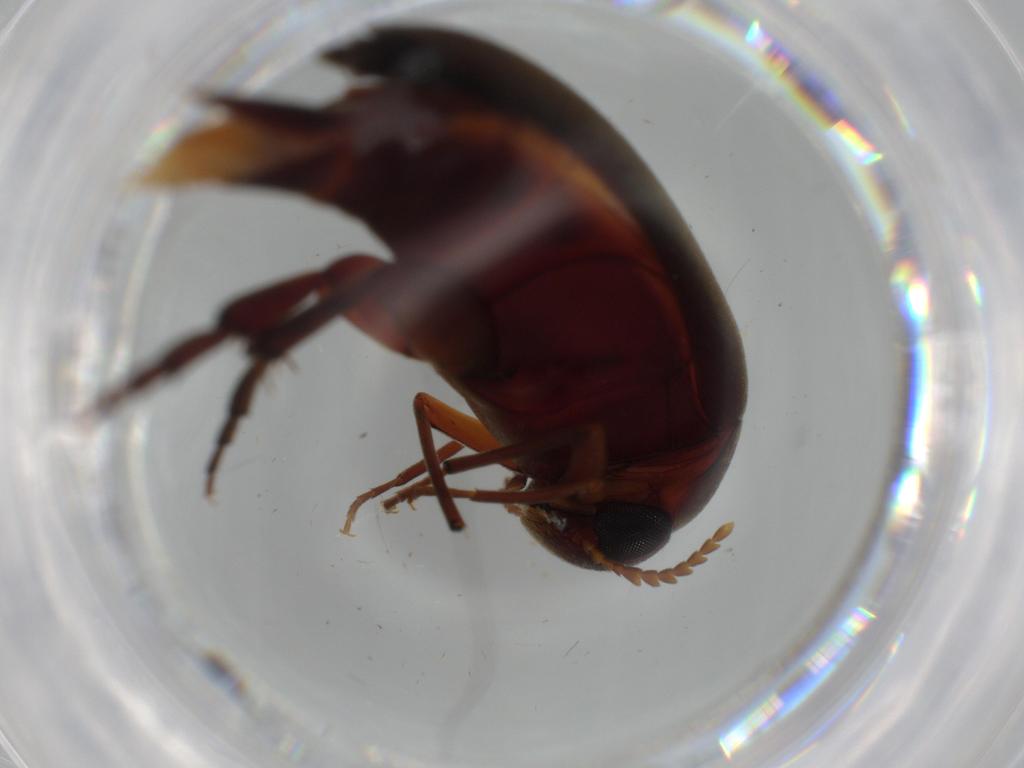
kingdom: Animalia
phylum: Arthropoda
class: Insecta
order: Coleoptera
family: Mordellidae
